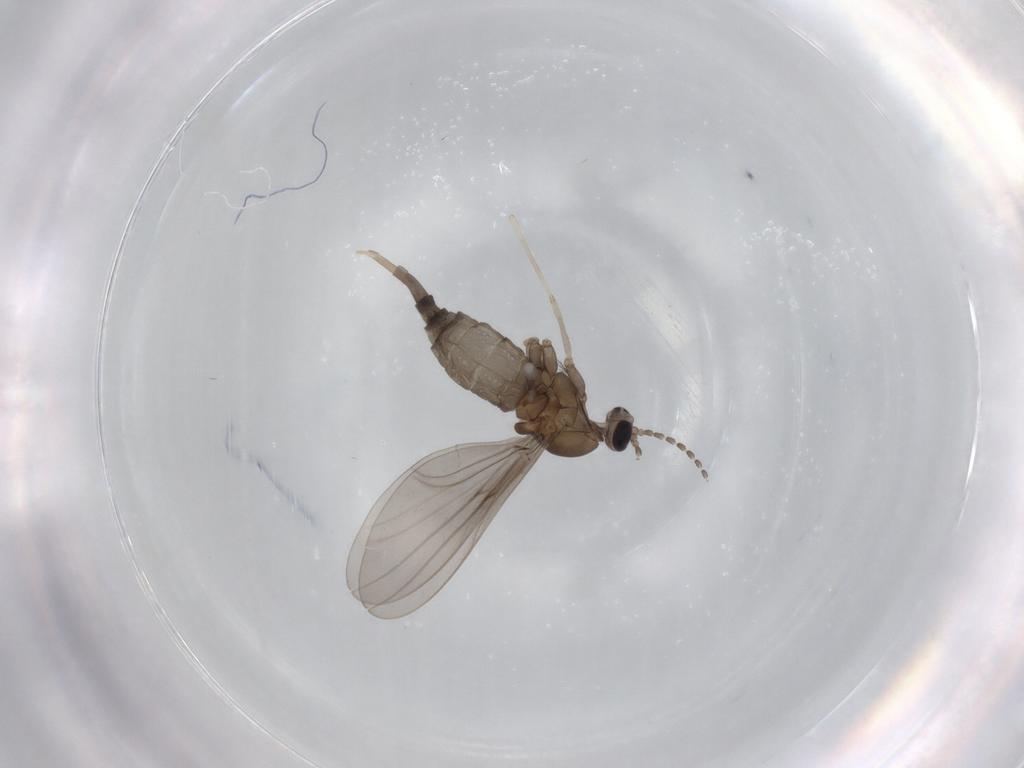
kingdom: Animalia
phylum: Arthropoda
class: Insecta
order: Diptera
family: Cecidomyiidae
